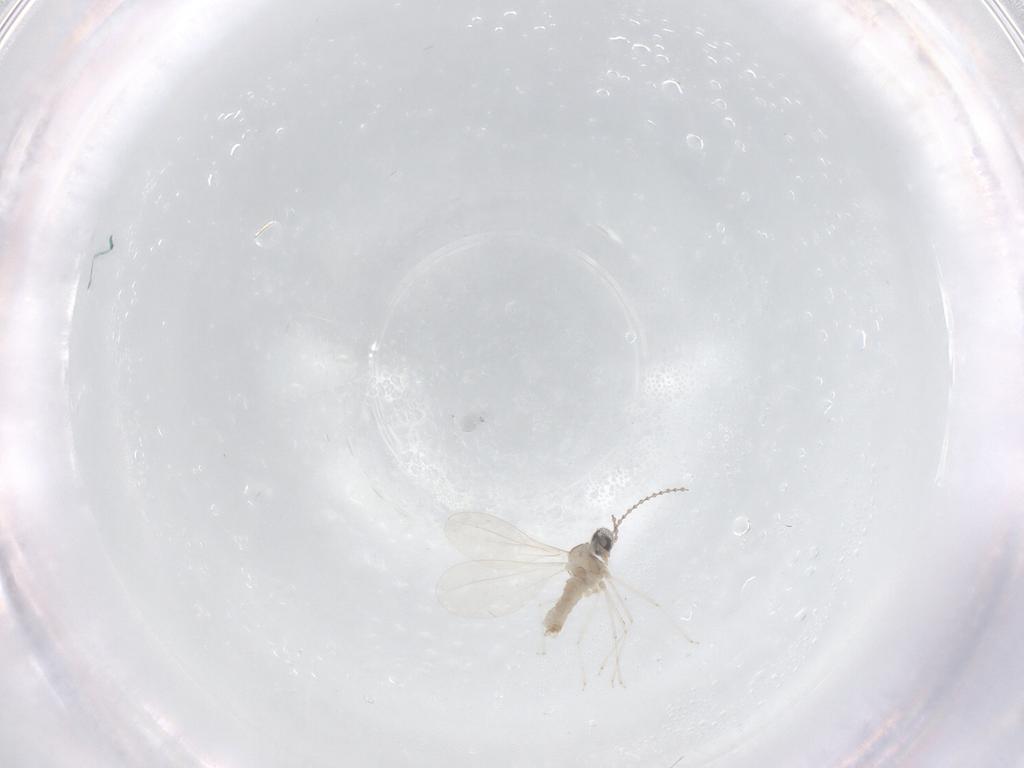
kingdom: Animalia
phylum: Arthropoda
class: Insecta
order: Diptera
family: Cecidomyiidae
